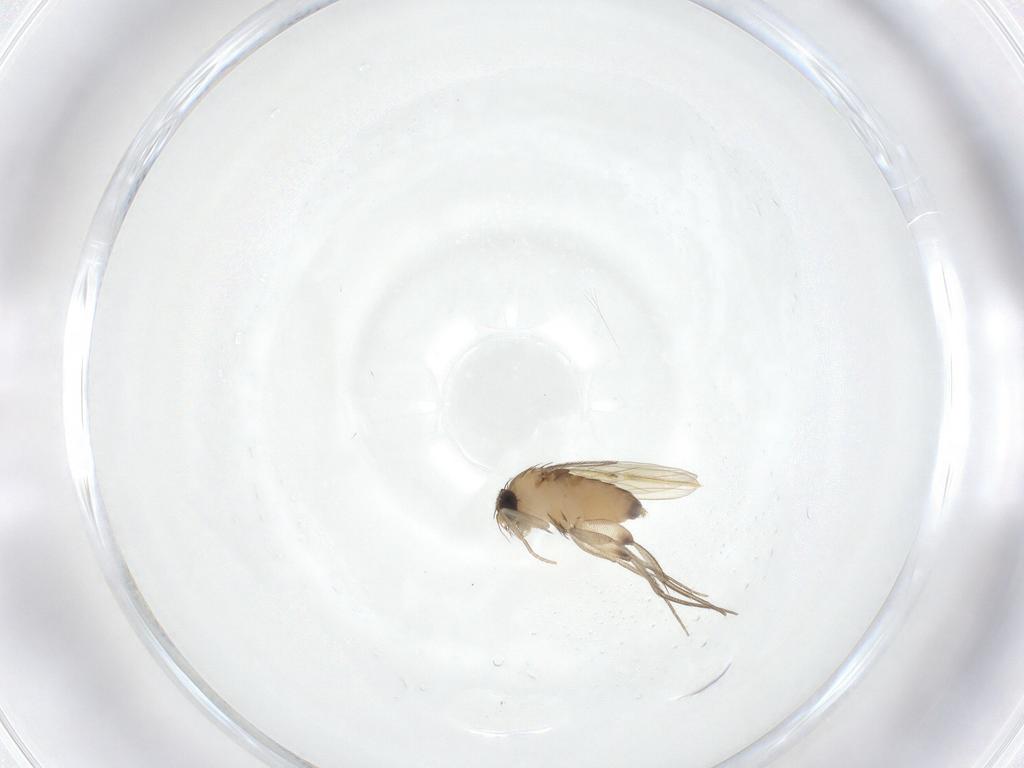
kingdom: Animalia
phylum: Arthropoda
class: Insecta
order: Diptera
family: Phoridae
